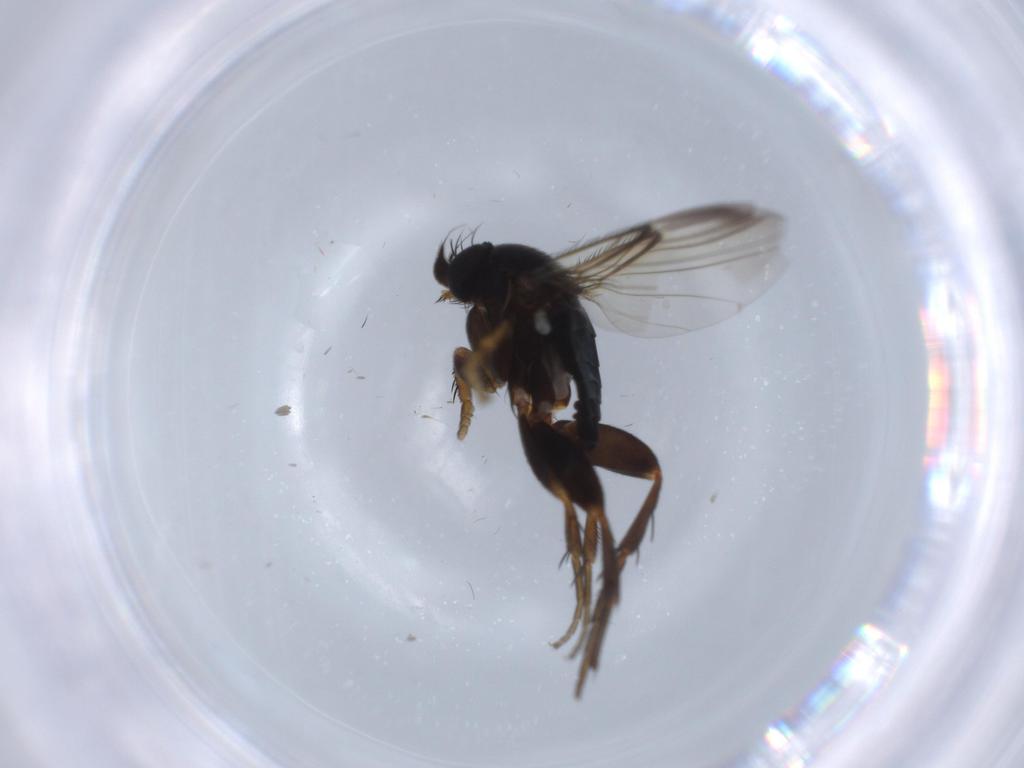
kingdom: Animalia
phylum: Arthropoda
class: Insecta
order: Diptera
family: Phoridae
